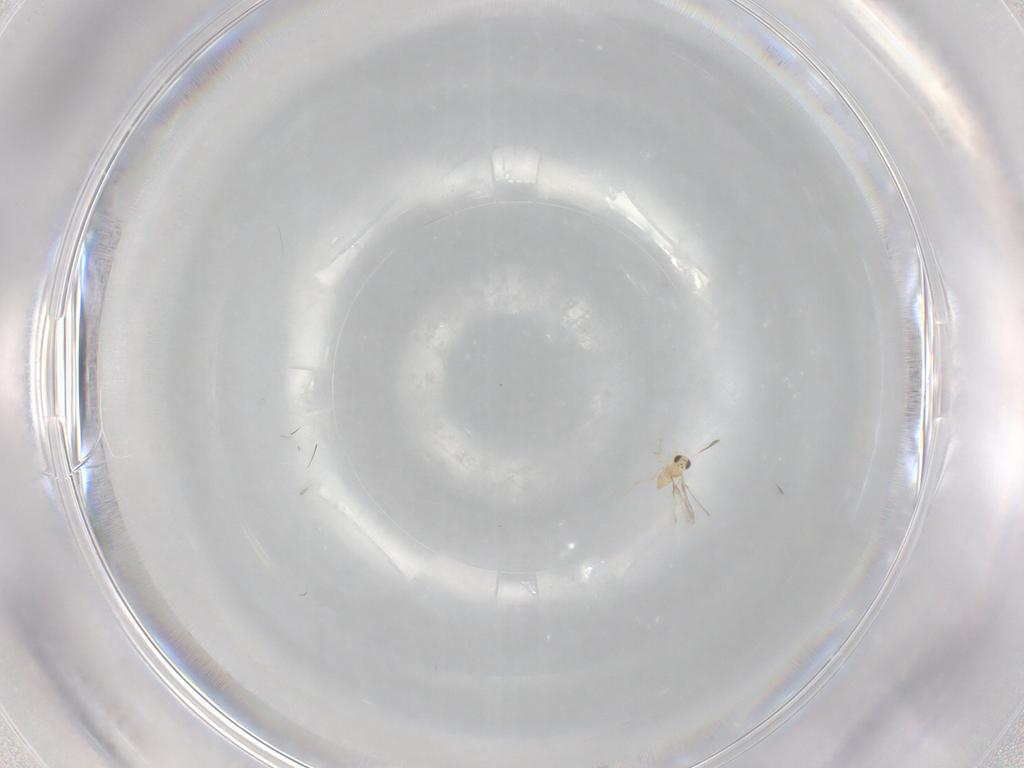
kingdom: Animalia
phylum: Arthropoda
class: Insecta
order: Hymenoptera
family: Mymaridae
